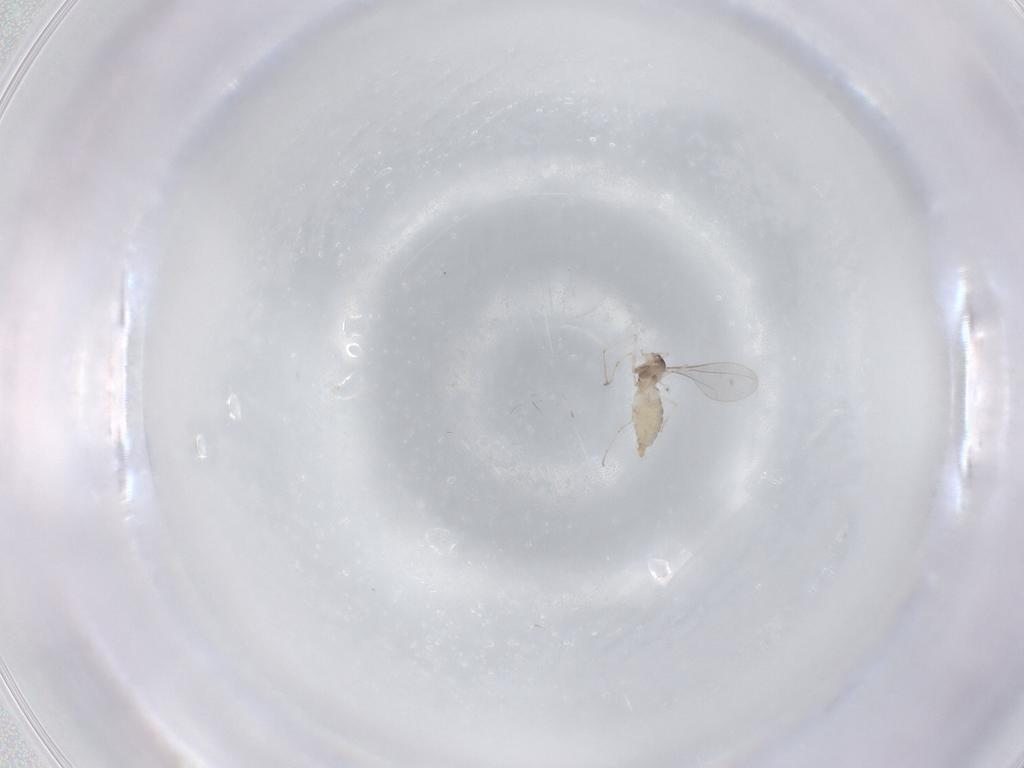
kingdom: Animalia
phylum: Arthropoda
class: Insecta
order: Diptera
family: Cecidomyiidae
